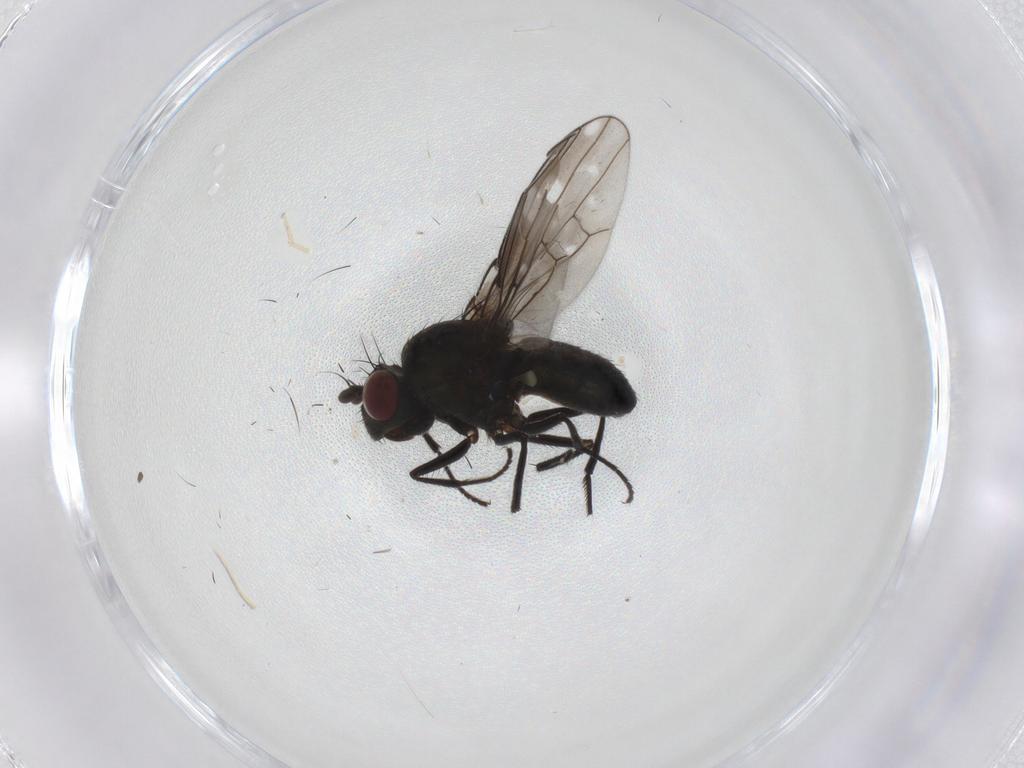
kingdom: Animalia
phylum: Arthropoda
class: Insecta
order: Diptera
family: Ephydridae
